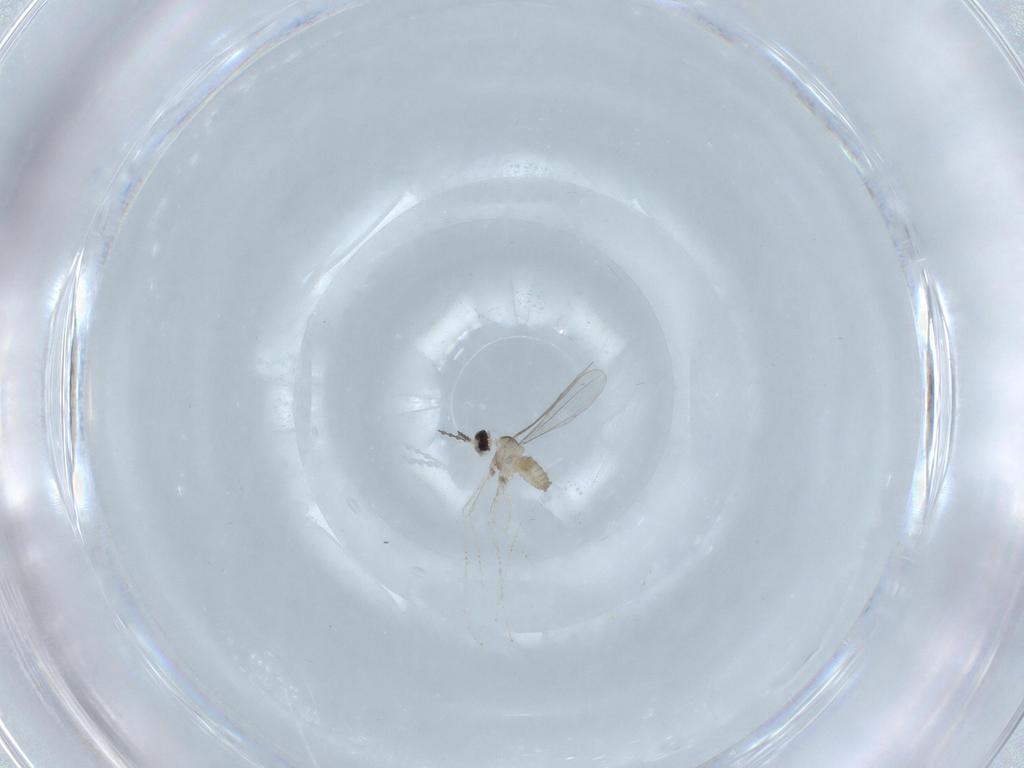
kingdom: Animalia
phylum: Arthropoda
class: Insecta
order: Diptera
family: Cecidomyiidae
